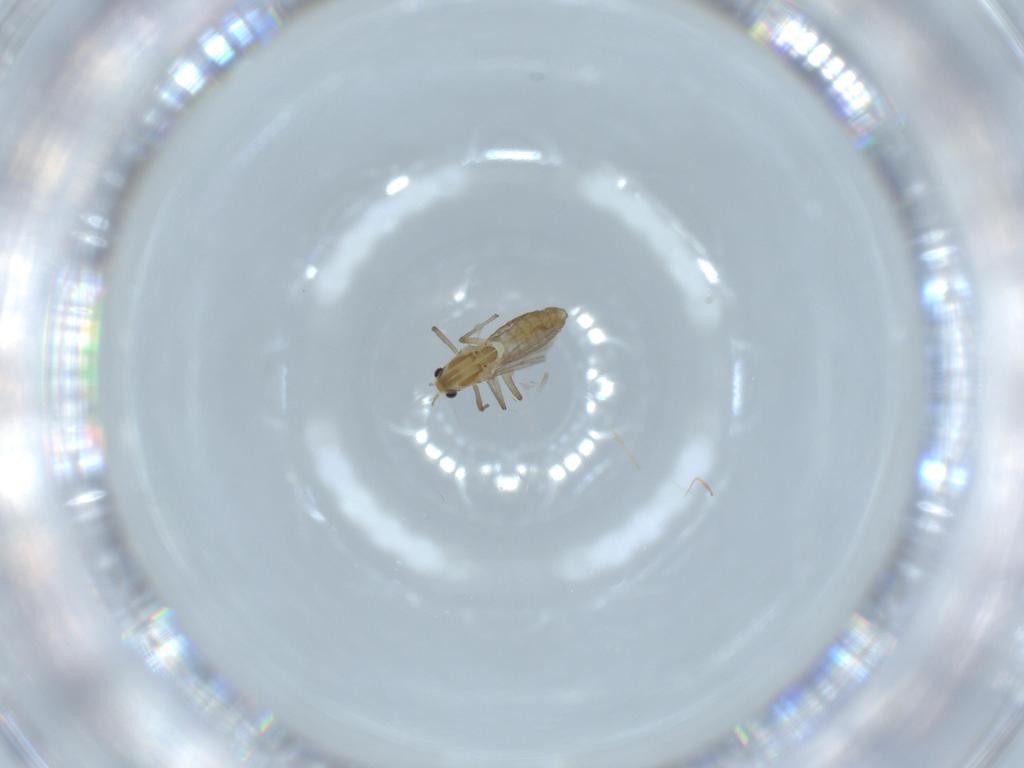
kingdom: Animalia
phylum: Arthropoda
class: Insecta
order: Diptera
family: Chironomidae
